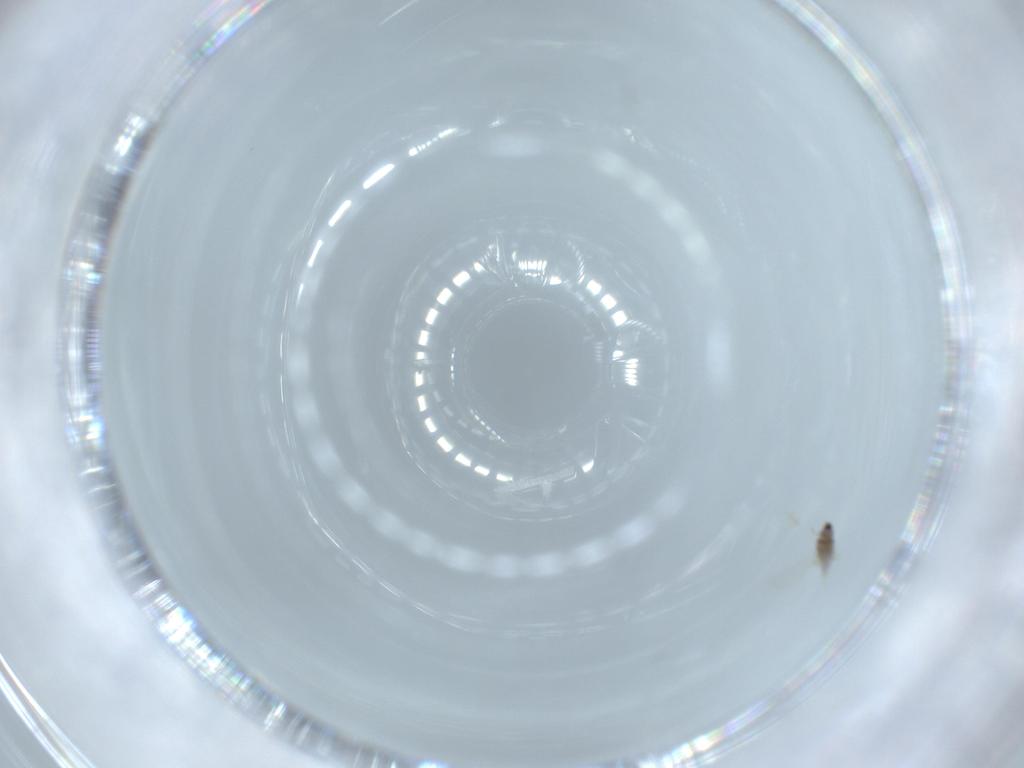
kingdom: Animalia
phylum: Arthropoda
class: Insecta
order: Hemiptera
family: Diaspididae
